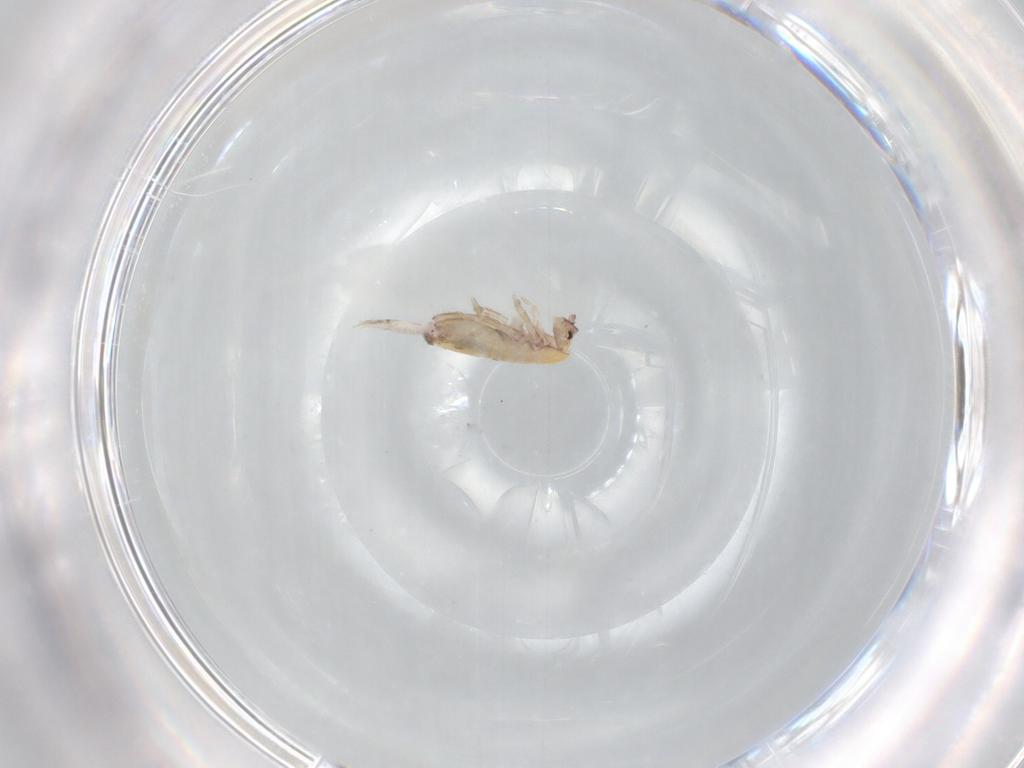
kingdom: Animalia
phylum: Arthropoda
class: Collembola
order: Entomobryomorpha
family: Entomobryidae
